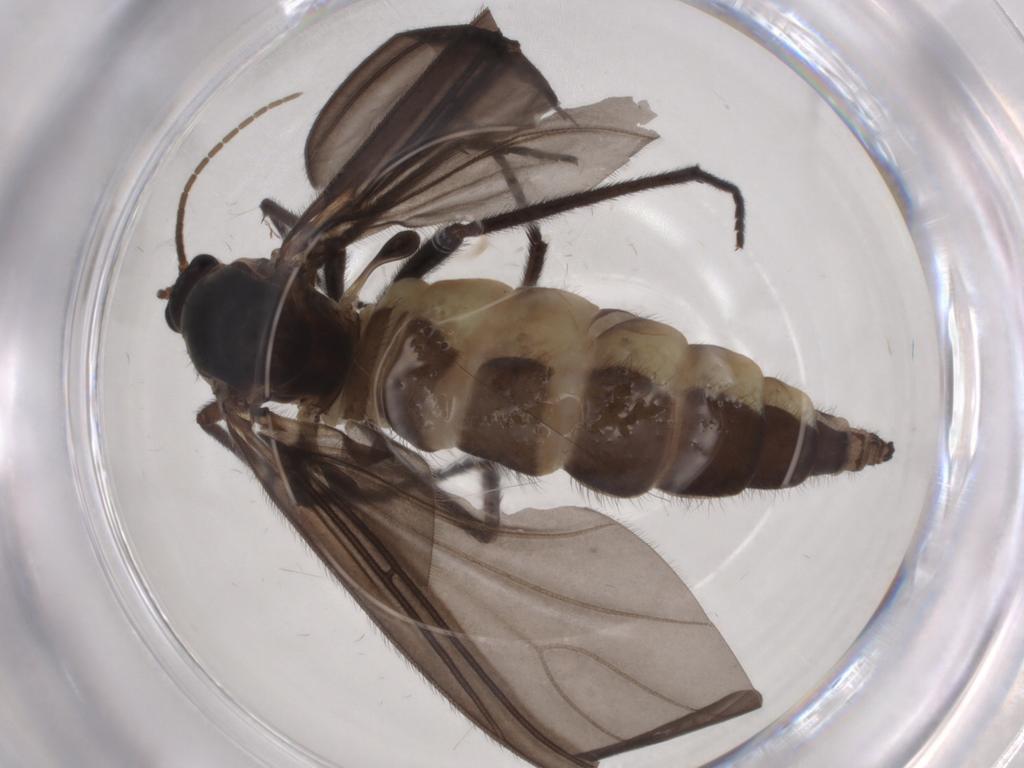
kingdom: Animalia
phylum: Arthropoda
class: Insecta
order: Diptera
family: Sciaridae
